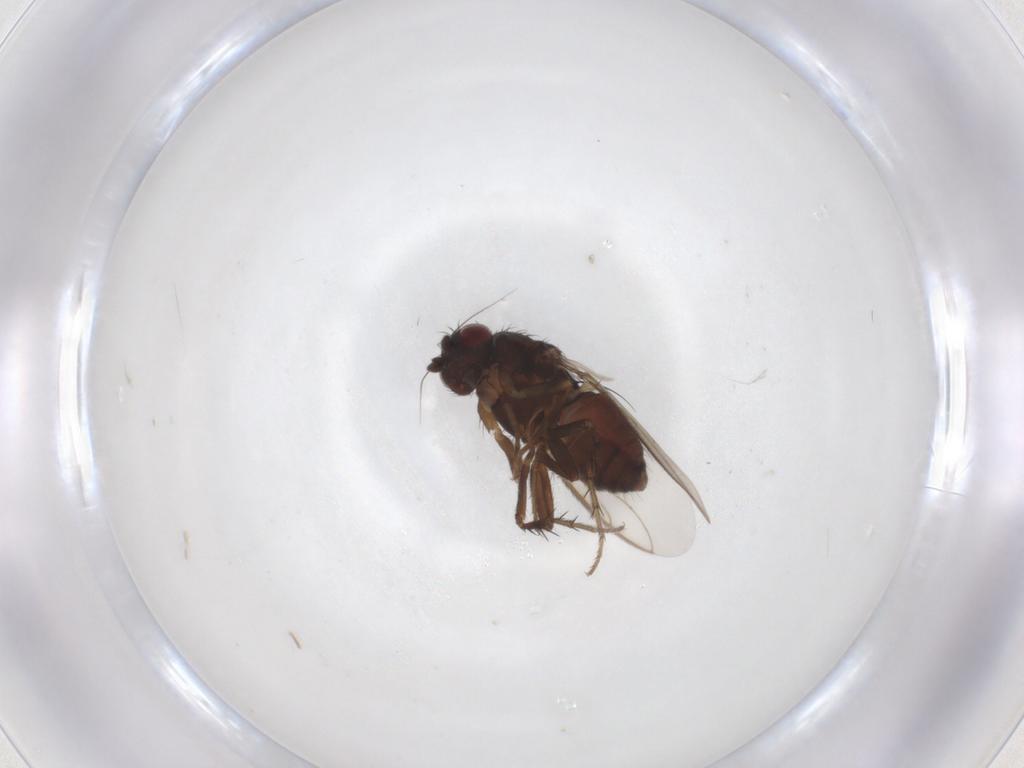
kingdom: Animalia
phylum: Arthropoda
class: Insecta
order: Diptera
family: Sphaeroceridae
